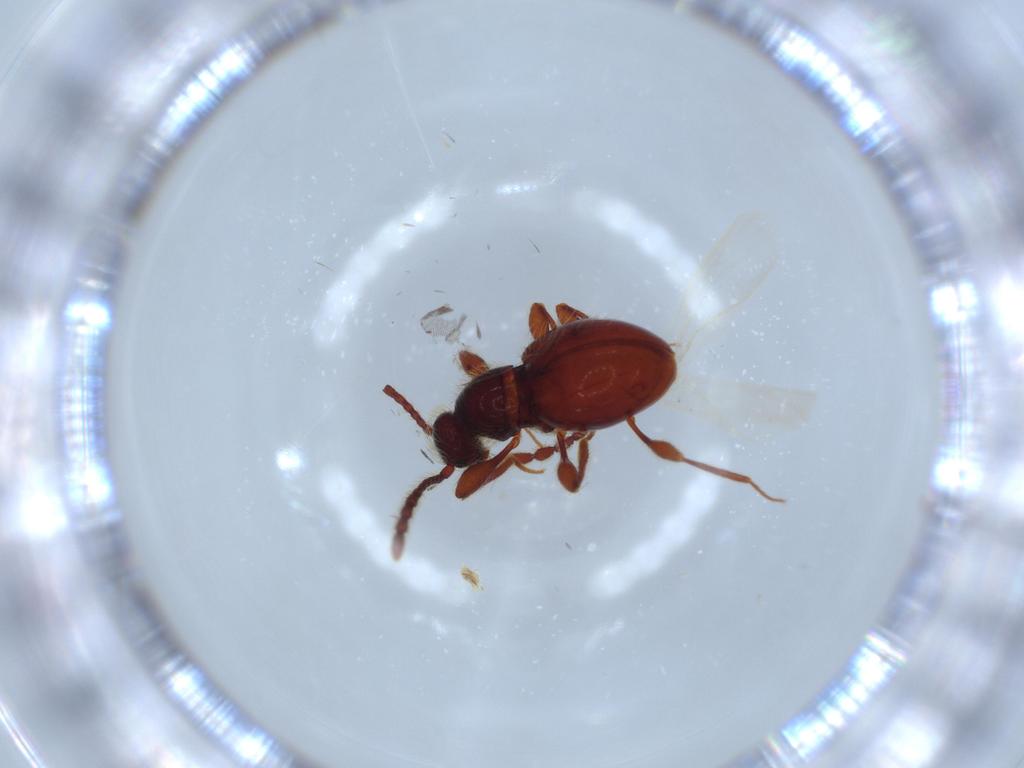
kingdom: Animalia
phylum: Arthropoda
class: Insecta
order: Coleoptera
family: Staphylinidae
